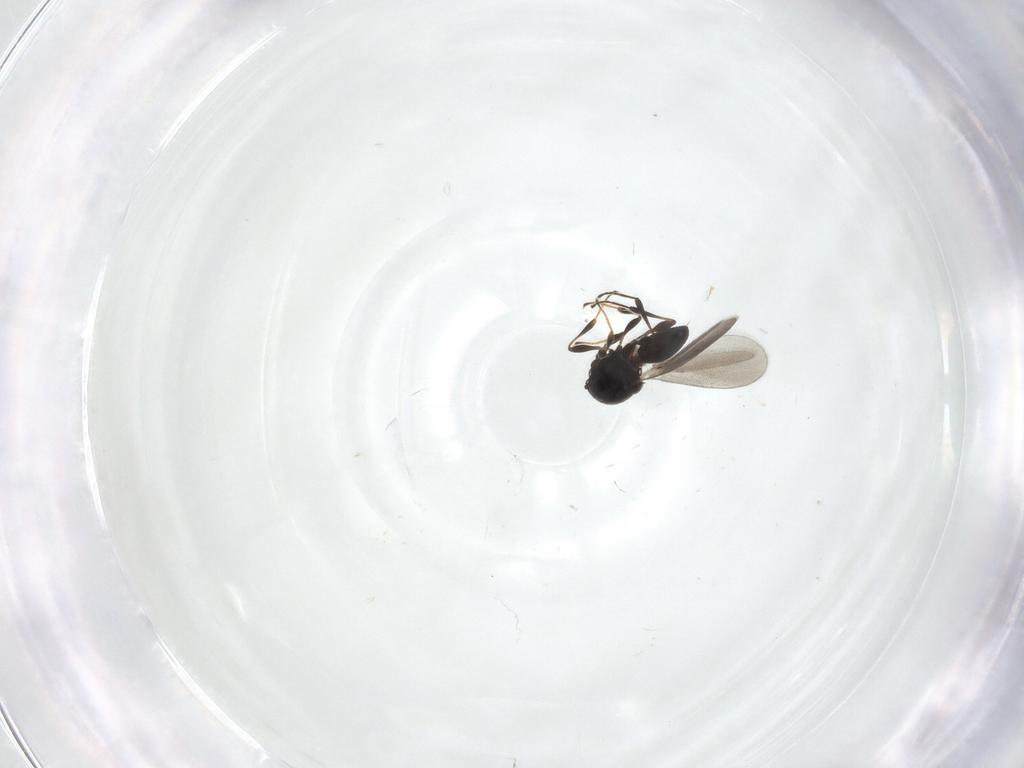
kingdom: Animalia
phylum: Arthropoda
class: Insecta
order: Hymenoptera
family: Platygastridae
